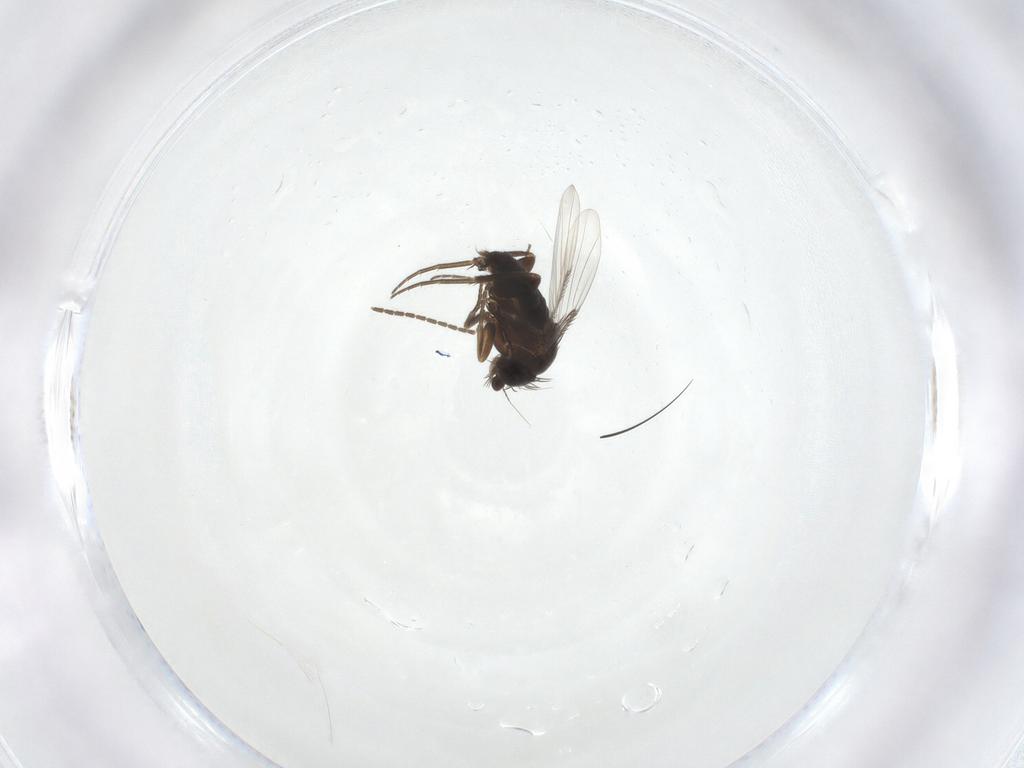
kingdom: Animalia
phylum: Arthropoda
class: Insecta
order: Diptera
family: Phoridae
